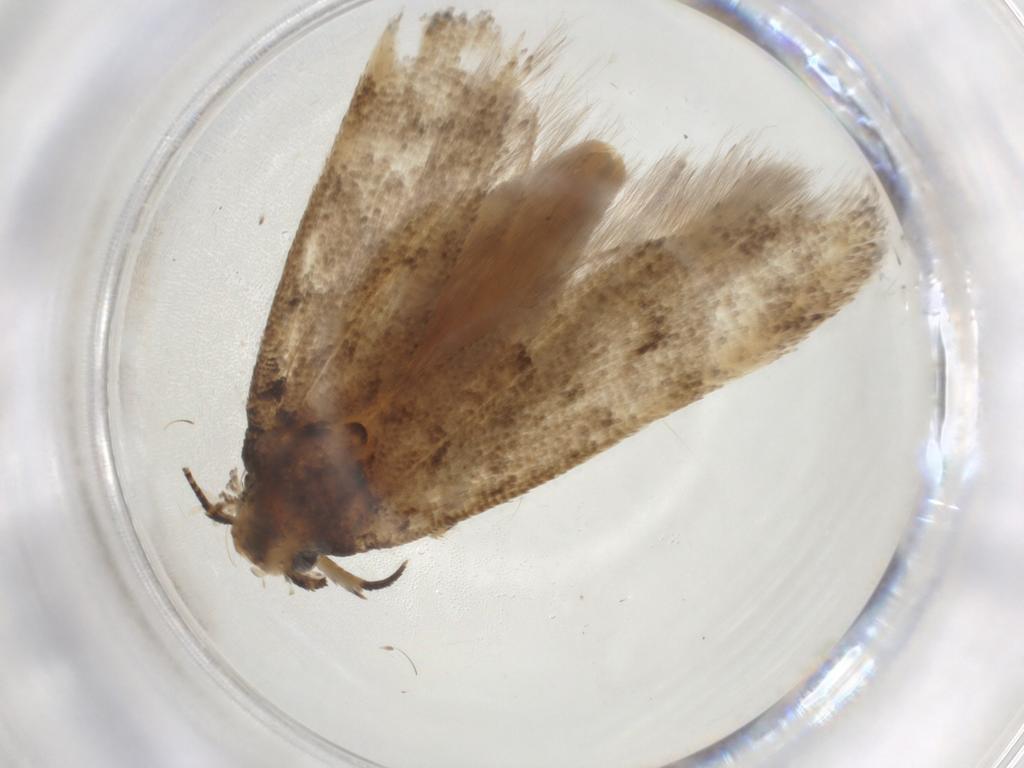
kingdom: Animalia
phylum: Arthropoda
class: Insecta
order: Lepidoptera
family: Gelechiidae
